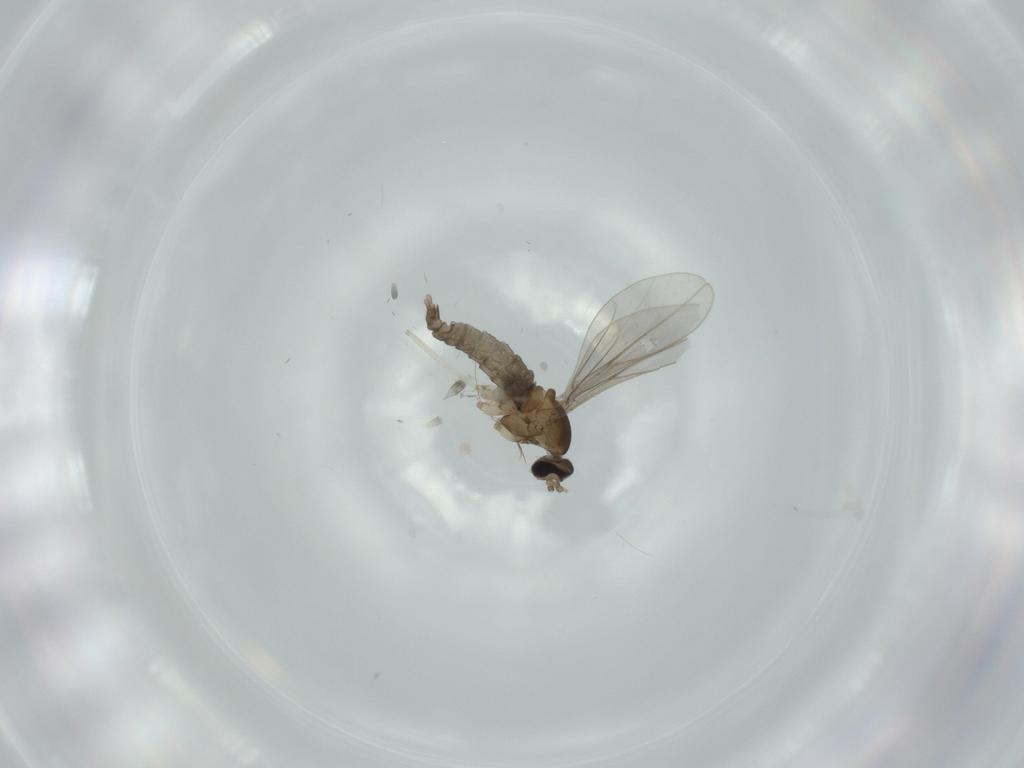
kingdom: Animalia
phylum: Arthropoda
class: Insecta
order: Diptera
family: Cecidomyiidae
